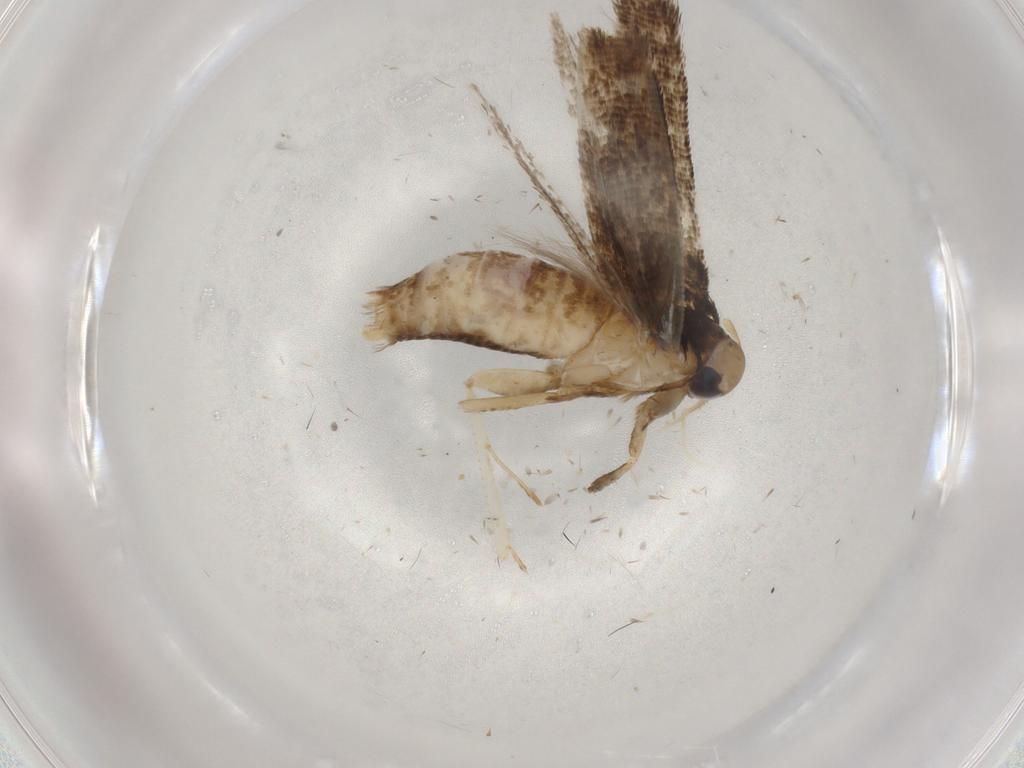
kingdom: Animalia
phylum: Arthropoda
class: Insecta
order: Lepidoptera
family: Cosmopterigidae
